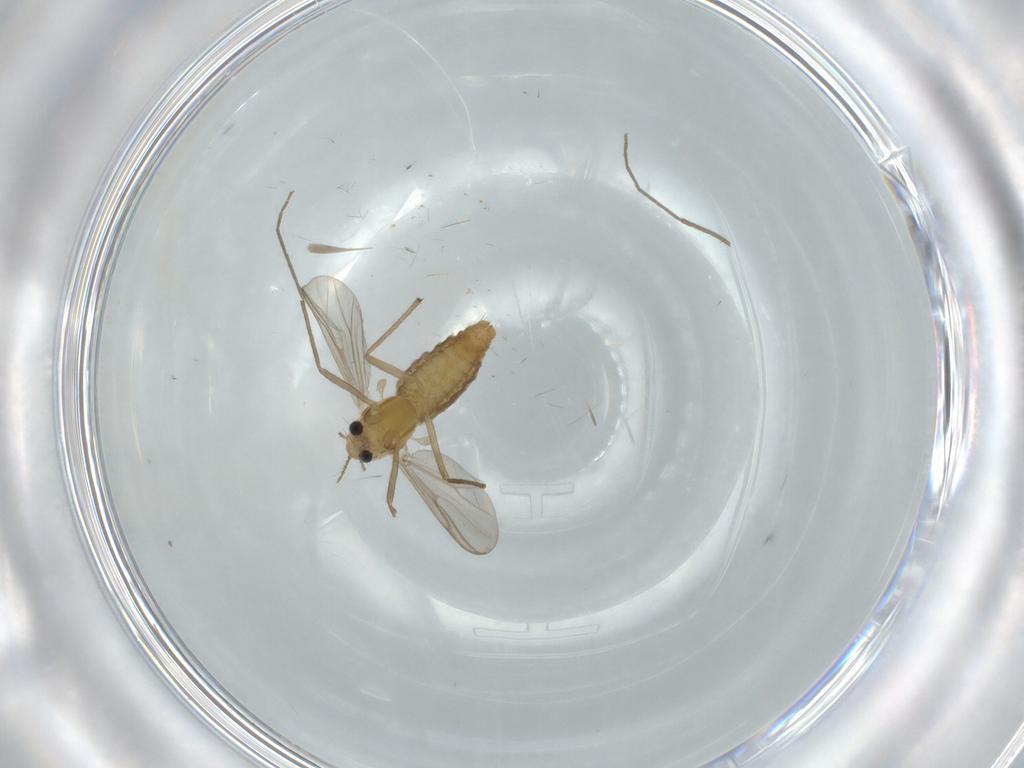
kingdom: Animalia
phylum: Arthropoda
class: Insecta
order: Diptera
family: Chironomidae
